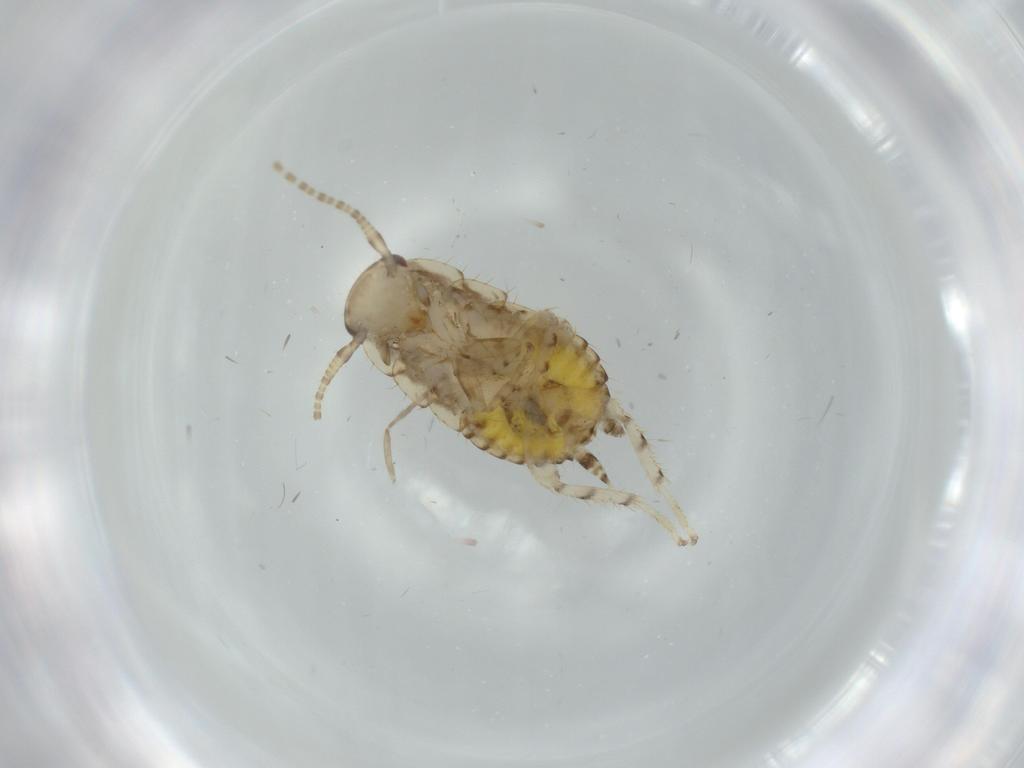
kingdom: Animalia
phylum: Arthropoda
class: Insecta
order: Blattodea
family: Ectobiidae
